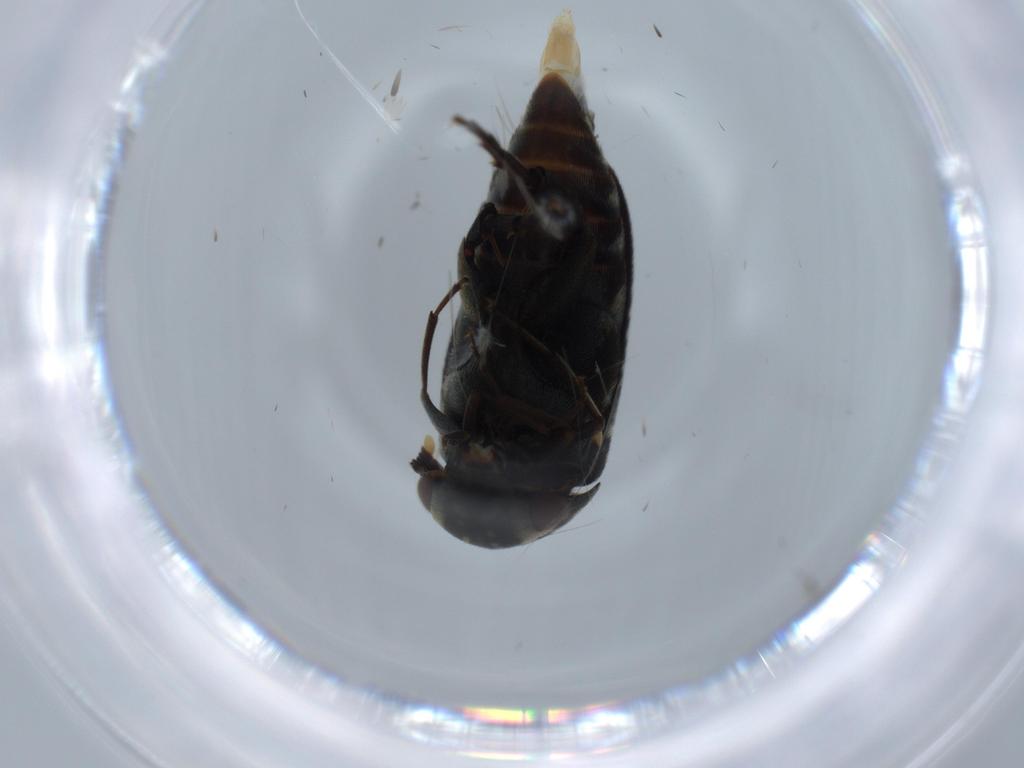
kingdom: Animalia
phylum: Arthropoda
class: Insecta
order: Coleoptera
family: Mordellidae
